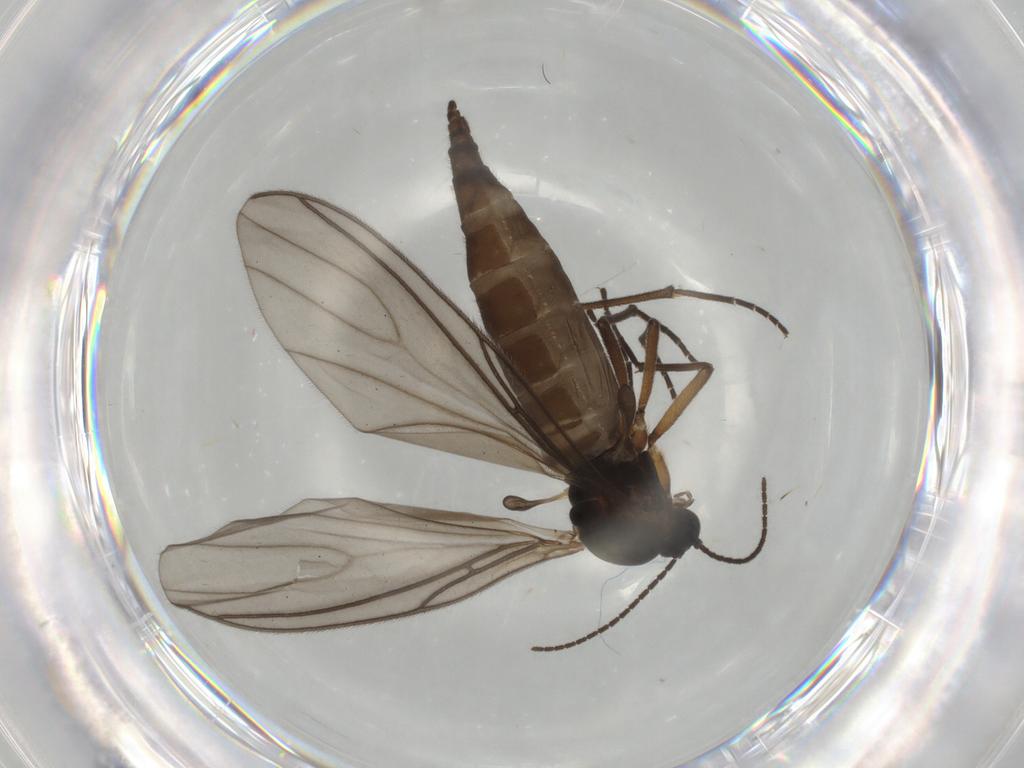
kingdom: Animalia
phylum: Arthropoda
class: Insecta
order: Diptera
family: Sciaridae
